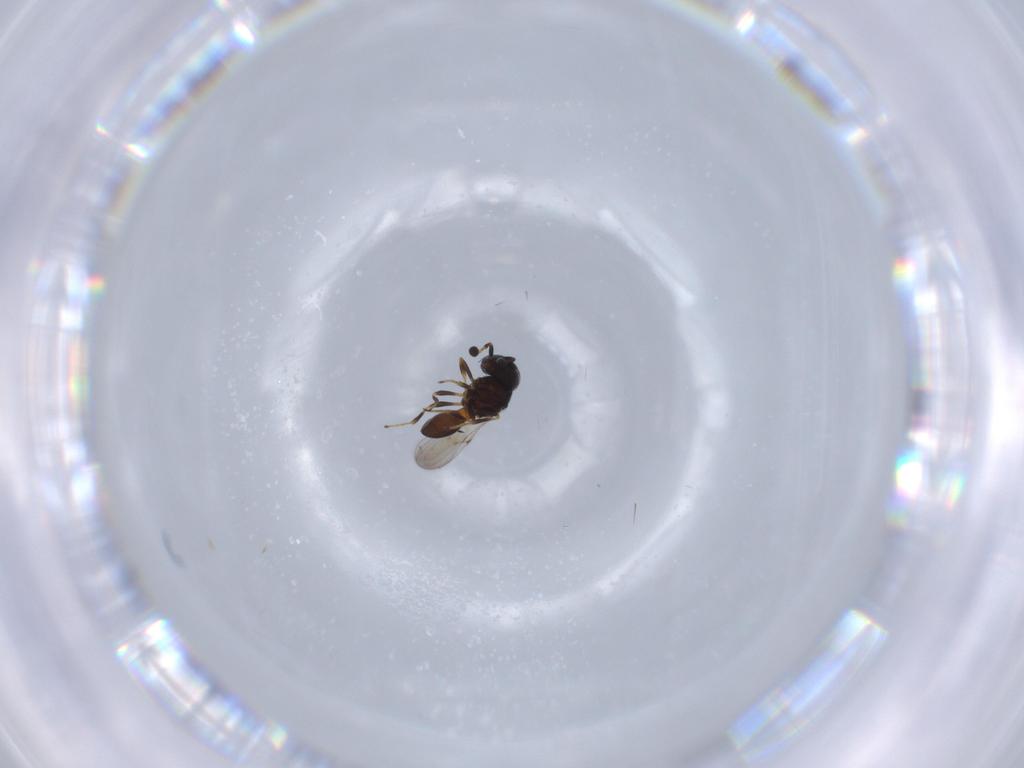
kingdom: Animalia
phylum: Arthropoda
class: Insecta
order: Hymenoptera
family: Scelionidae
